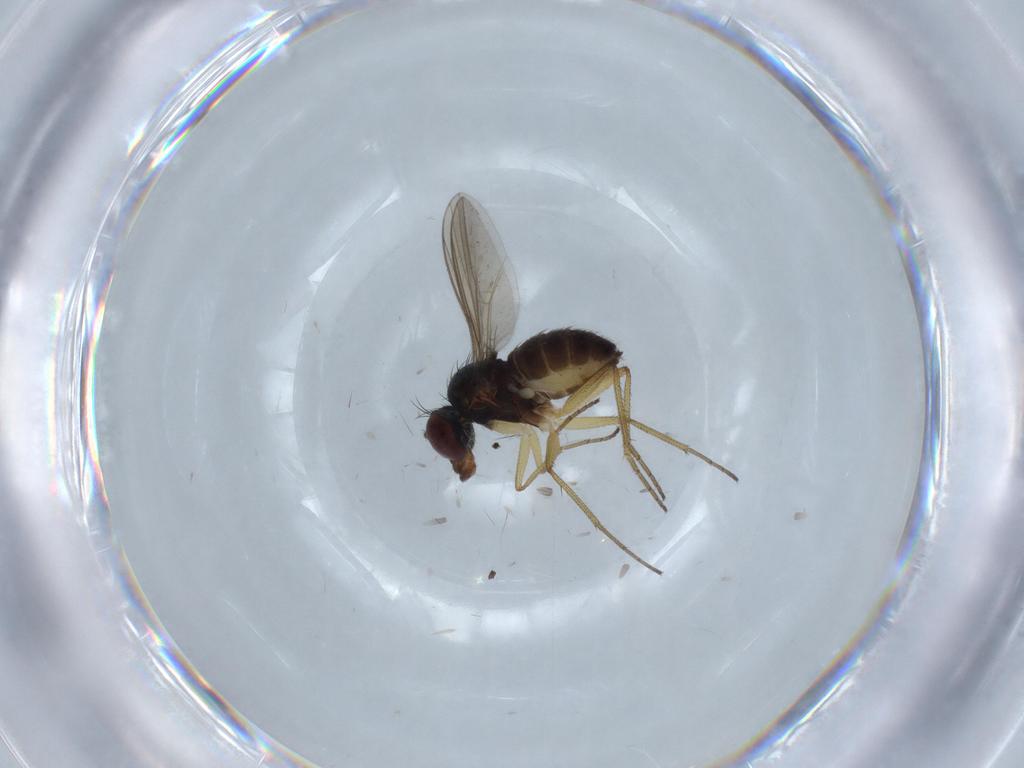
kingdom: Animalia
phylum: Arthropoda
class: Insecta
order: Diptera
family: Dolichopodidae
